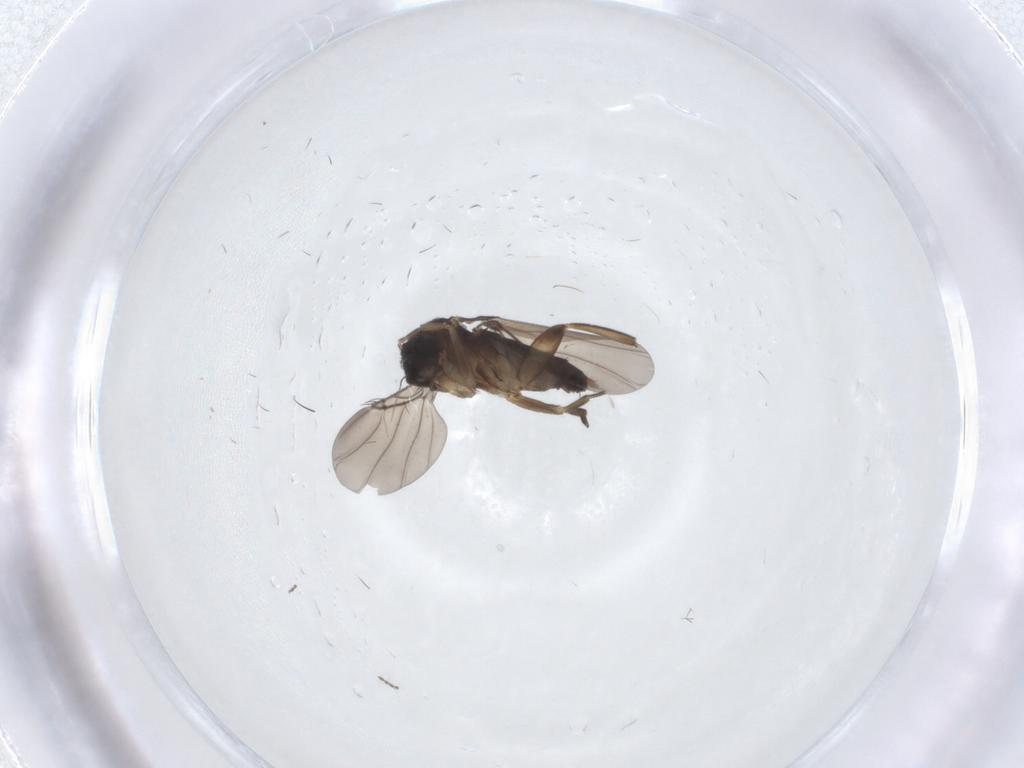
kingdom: Animalia
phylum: Arthropoda
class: Insecta
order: Diptera
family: Phoridae
